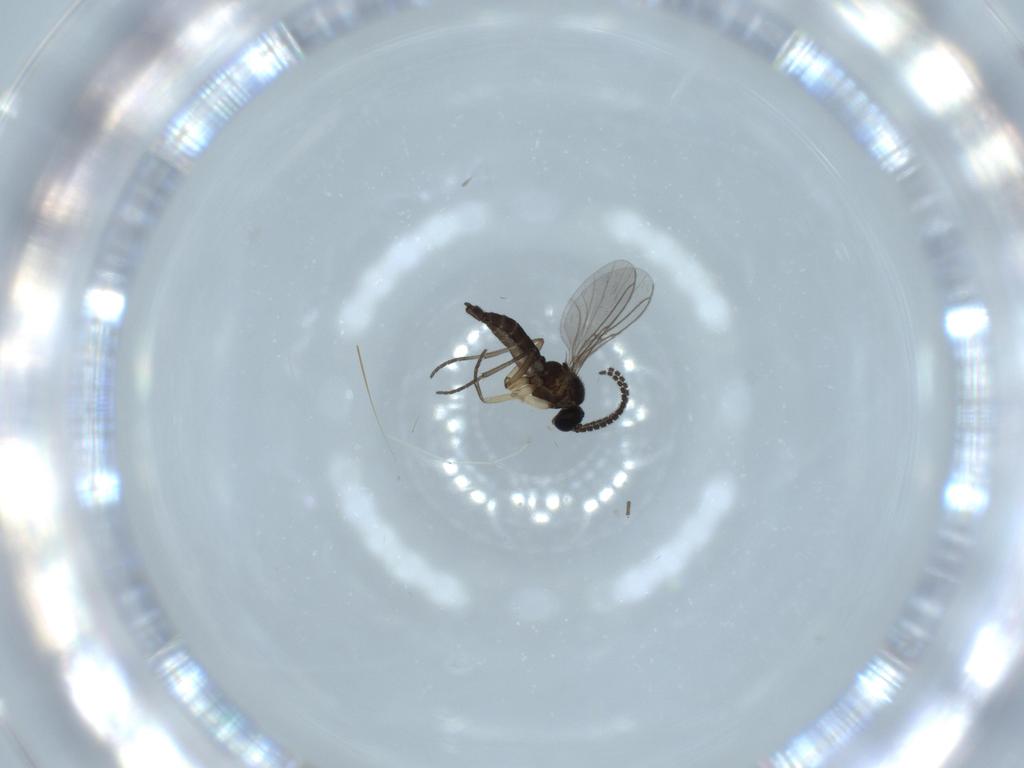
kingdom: Animalia
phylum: Arthropoda
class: Insecta
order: Diptera
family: Sciaridae
